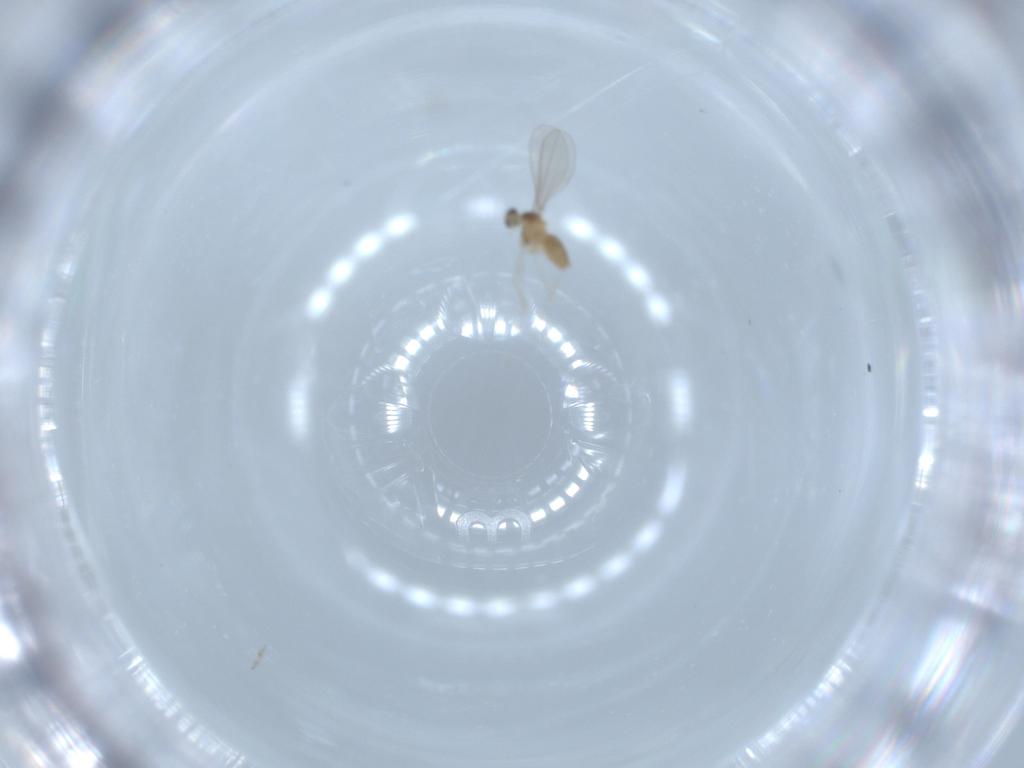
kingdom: Animalia
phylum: Arthropoda
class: Insecta
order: Diptera
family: Cecidomyiidae
